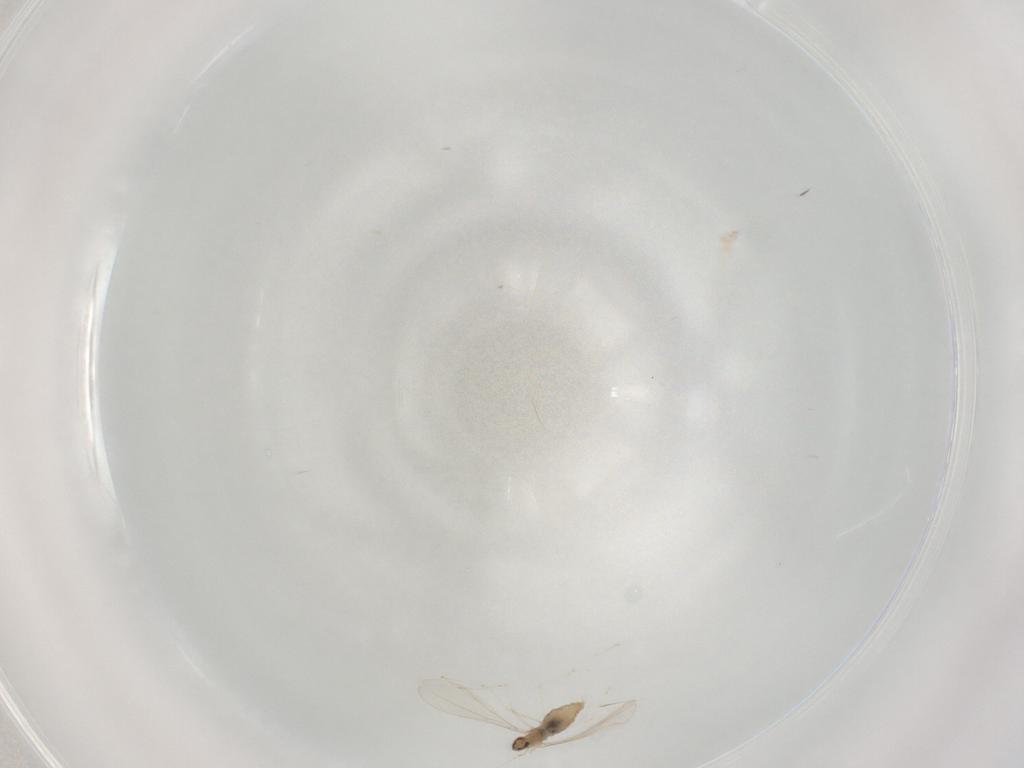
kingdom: Animalia
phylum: Arthropoda
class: Insecta
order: Diptera
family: Cecidomyiidae
